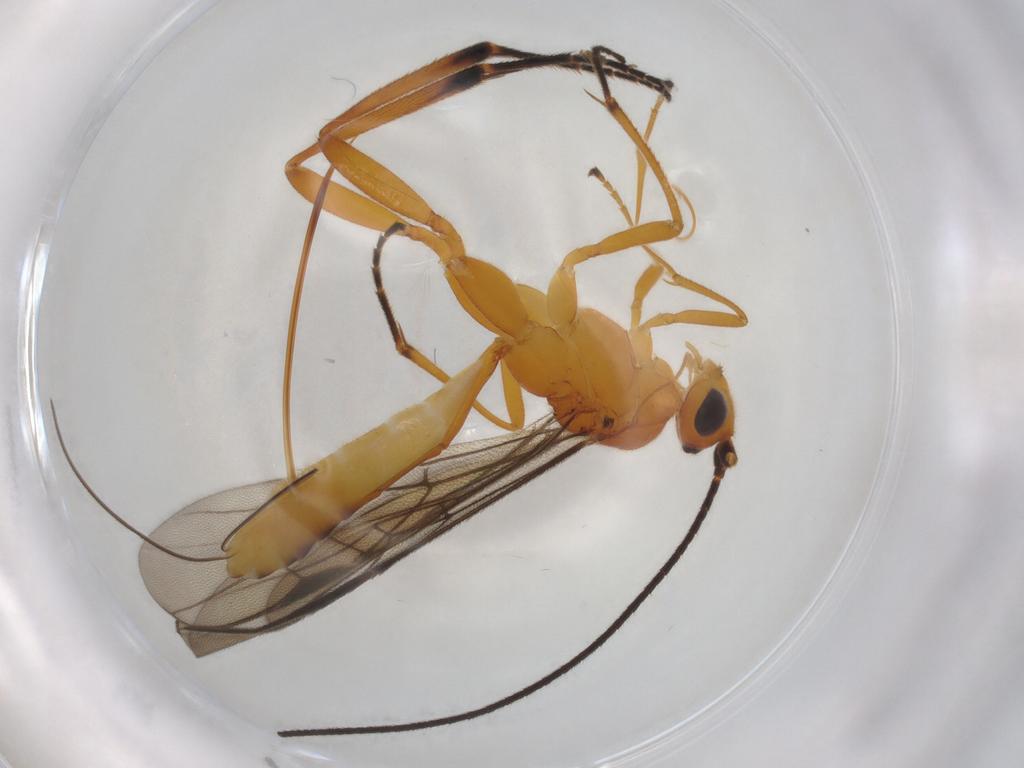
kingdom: Animalia
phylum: Arthropoda
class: Insecta
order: Hymenoptera
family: Braconidae
